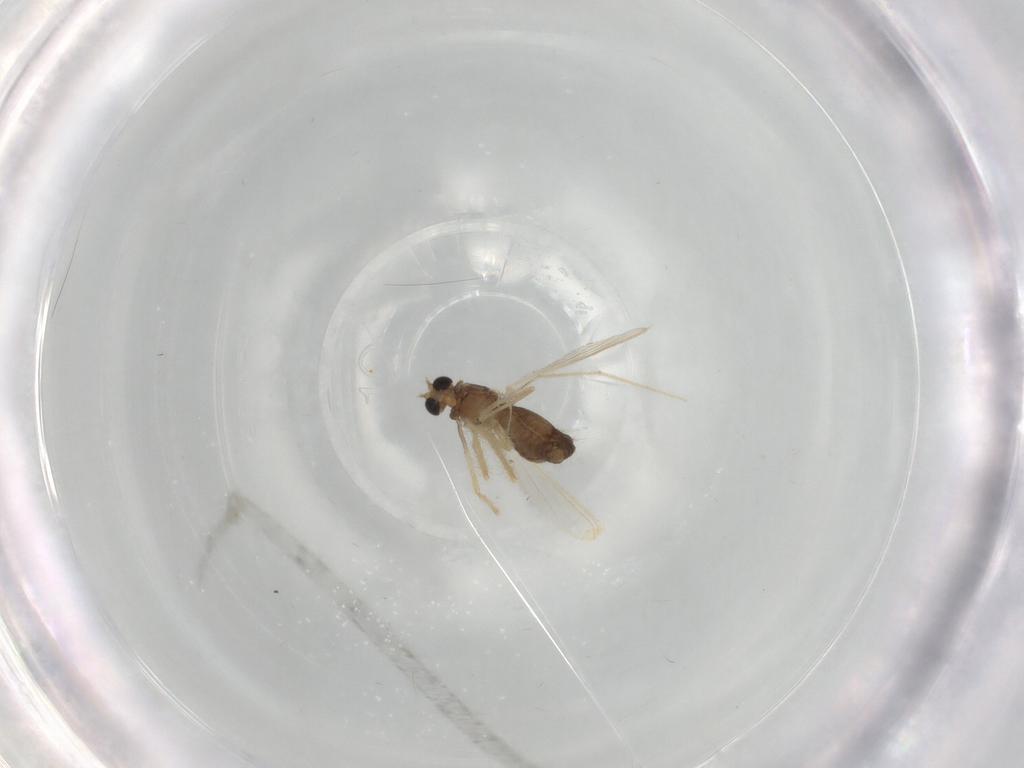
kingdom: Animalia
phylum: Arthropoda
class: Insecta
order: Diptera
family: Chironomidae
